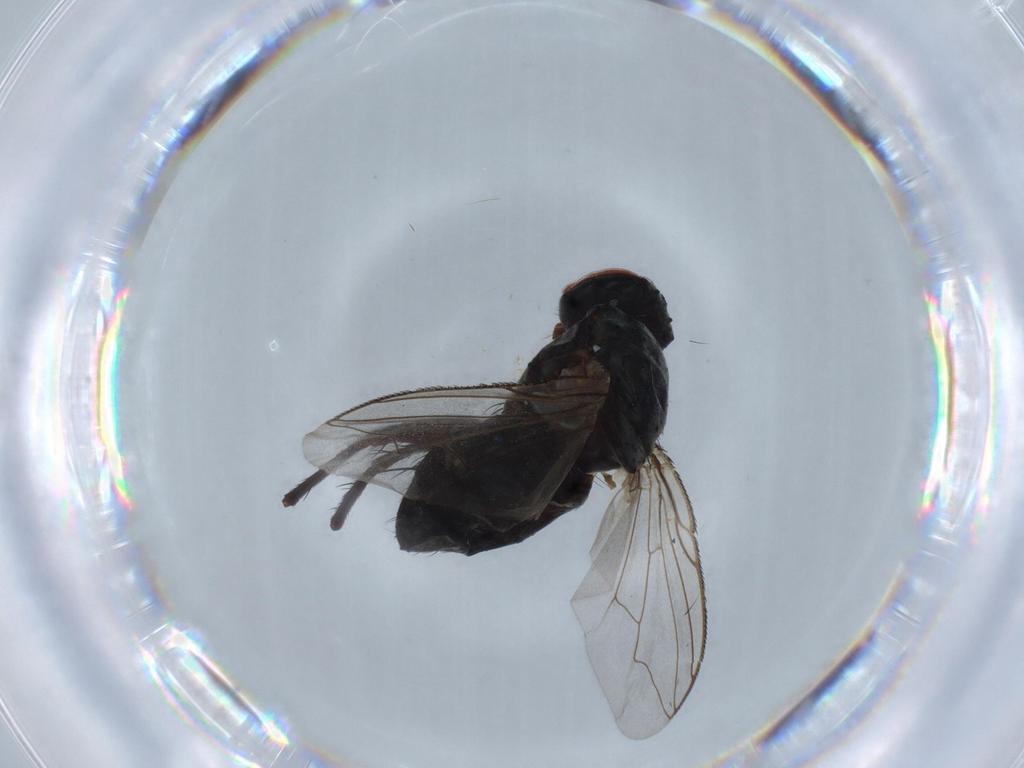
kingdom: Animalia
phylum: Arthropoda
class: Insecta
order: Diptera
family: Sarcophagidae
